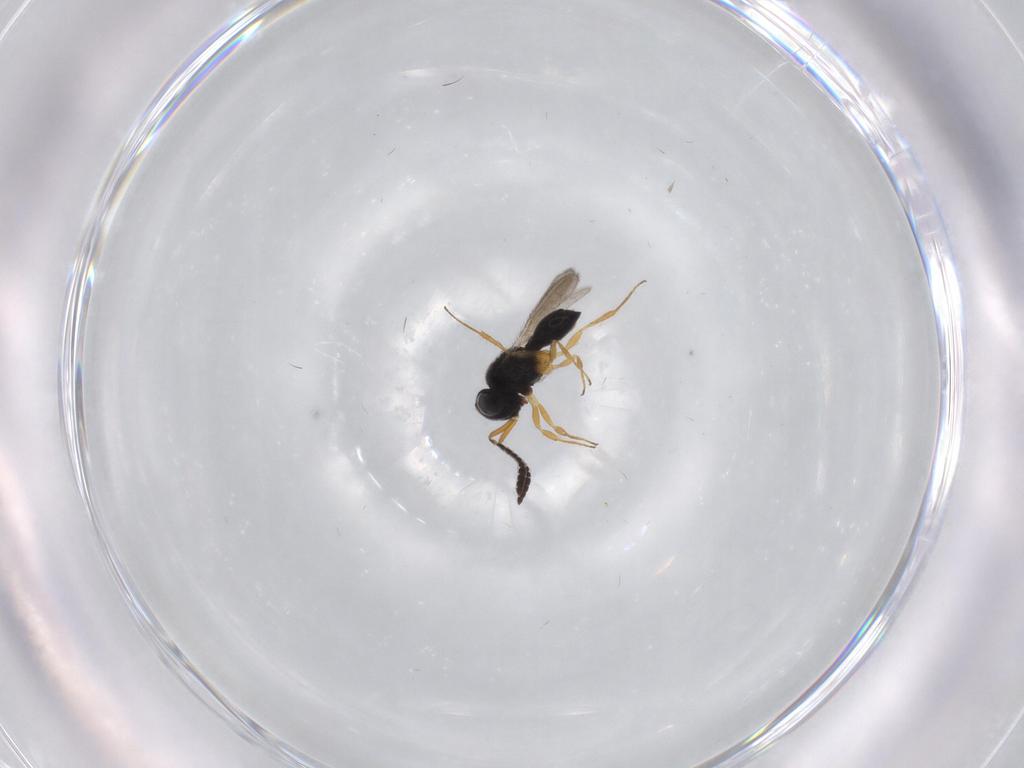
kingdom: Animalia
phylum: Arthropoda
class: Insecta
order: Hymenoptera
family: Scelionidae
